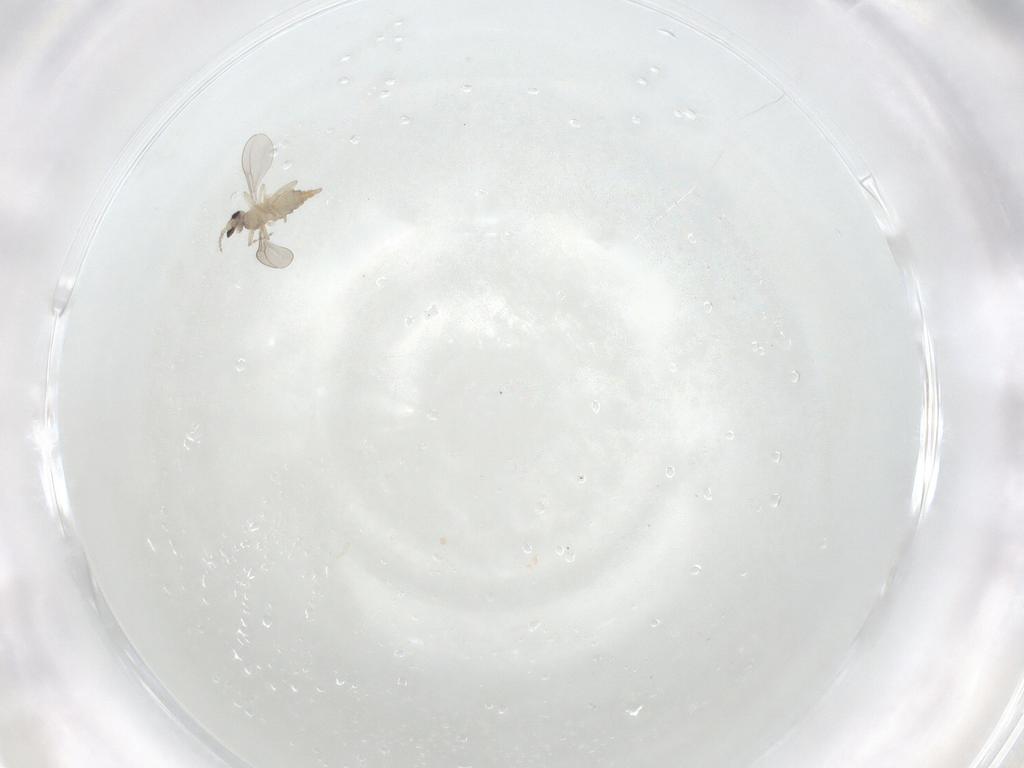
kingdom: Animalia
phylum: Arthropoda
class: Insecta
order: Diptera
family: Cecidomyiidae
